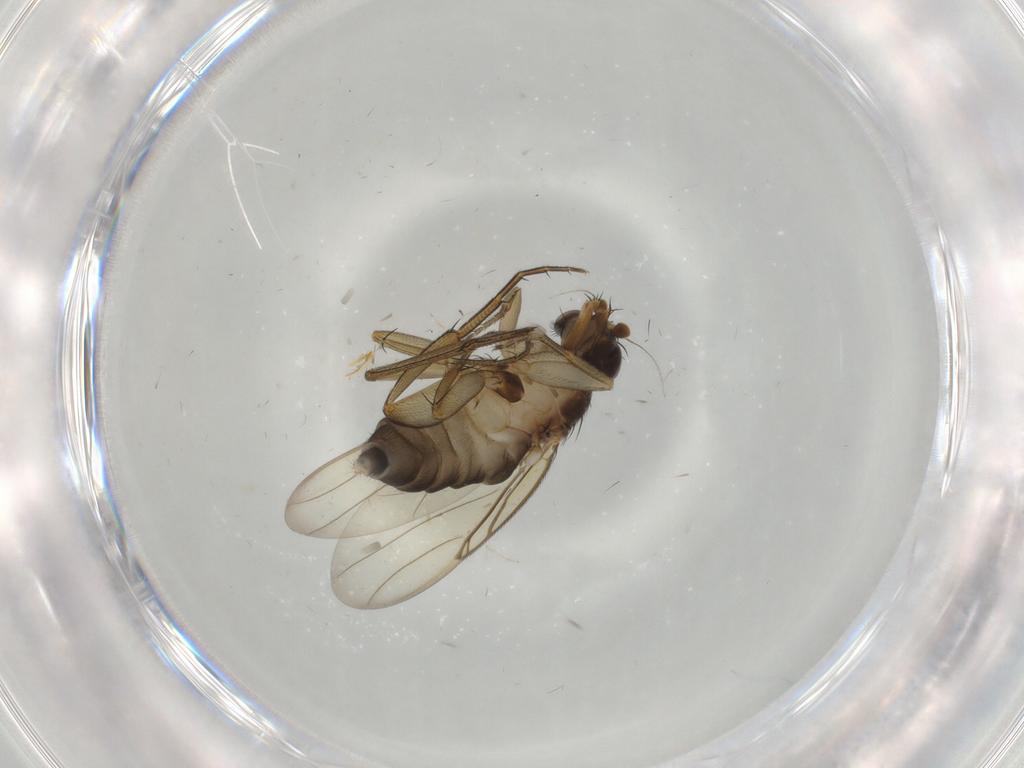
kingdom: Animalia
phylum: Arthropoda
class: Insecta
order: Diptera
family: Phoridae
